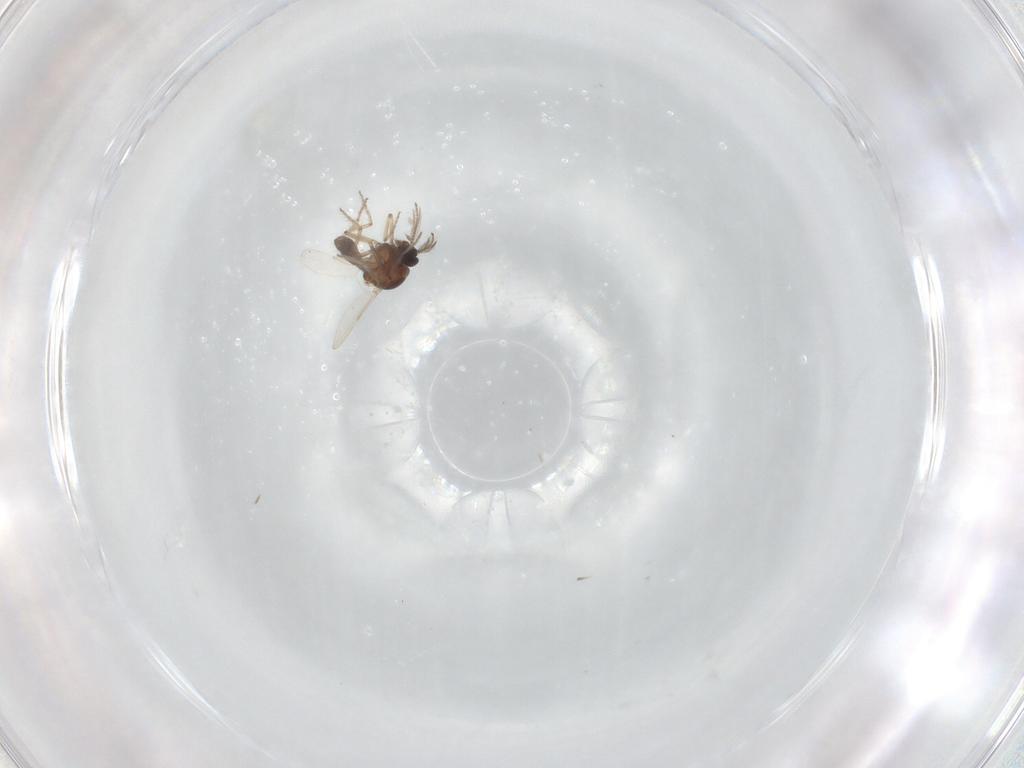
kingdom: Animalia
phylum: Arthropoda
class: Insecta
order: Diptera
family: Ceratopogonidae
